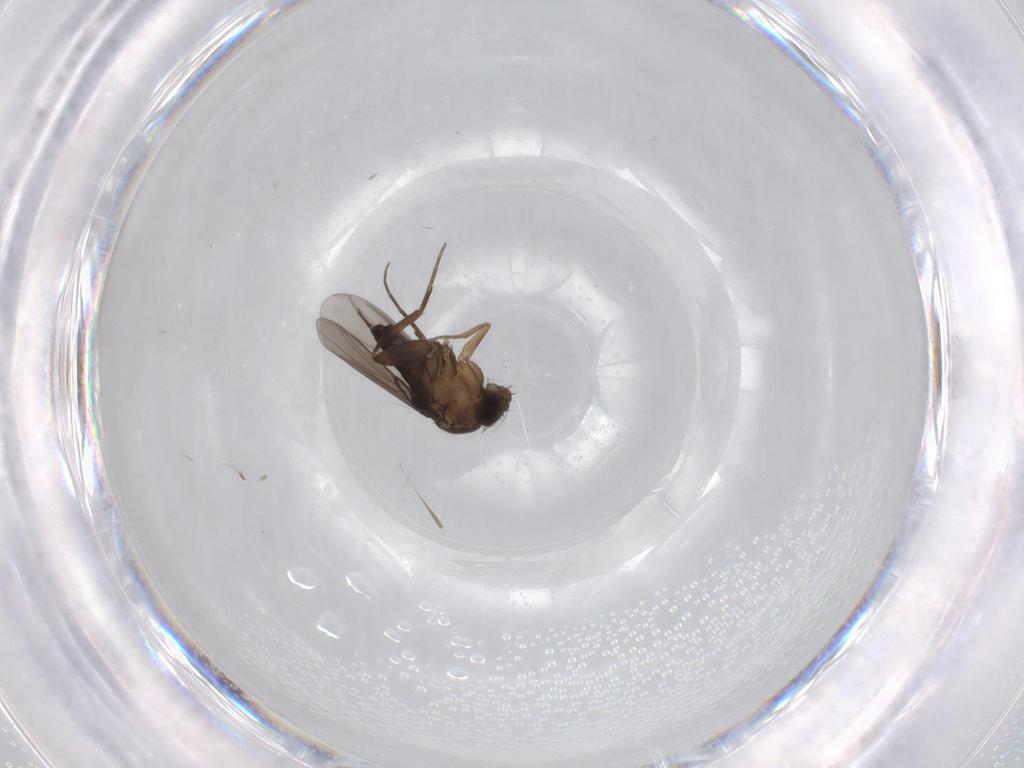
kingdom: Animalia
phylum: Arthropoda
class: Insecta
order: Diptera
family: Phoridae
